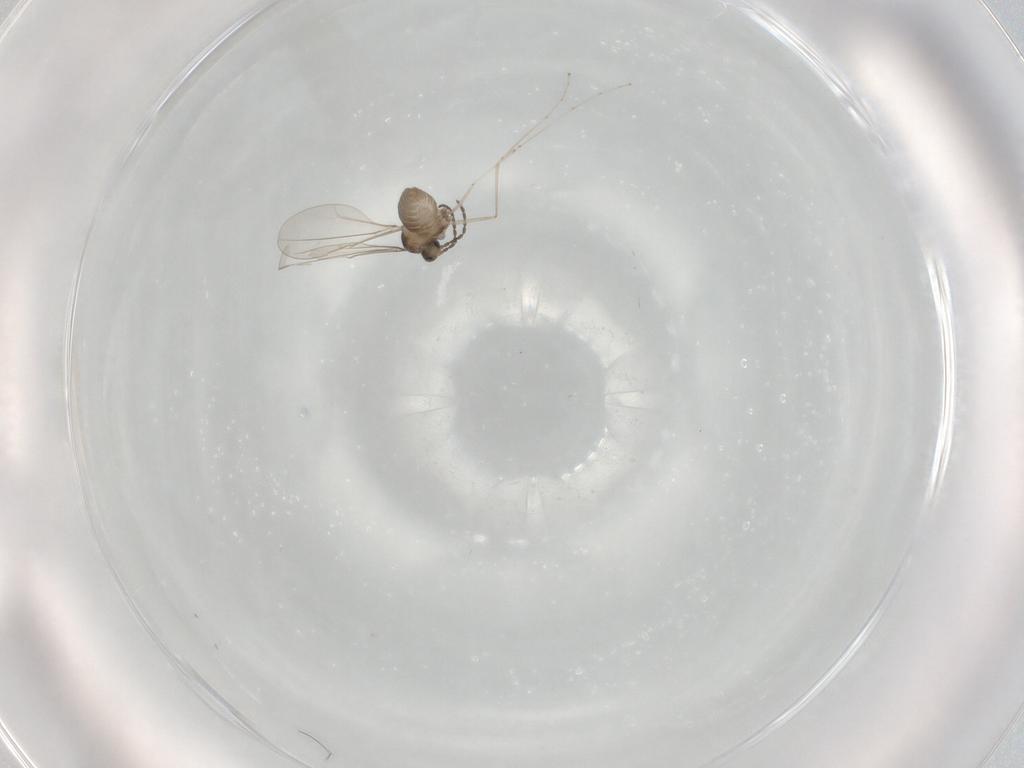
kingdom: Animalia
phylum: Arthropoda
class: Insecta
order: Diptera
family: Cecidomyiidae
